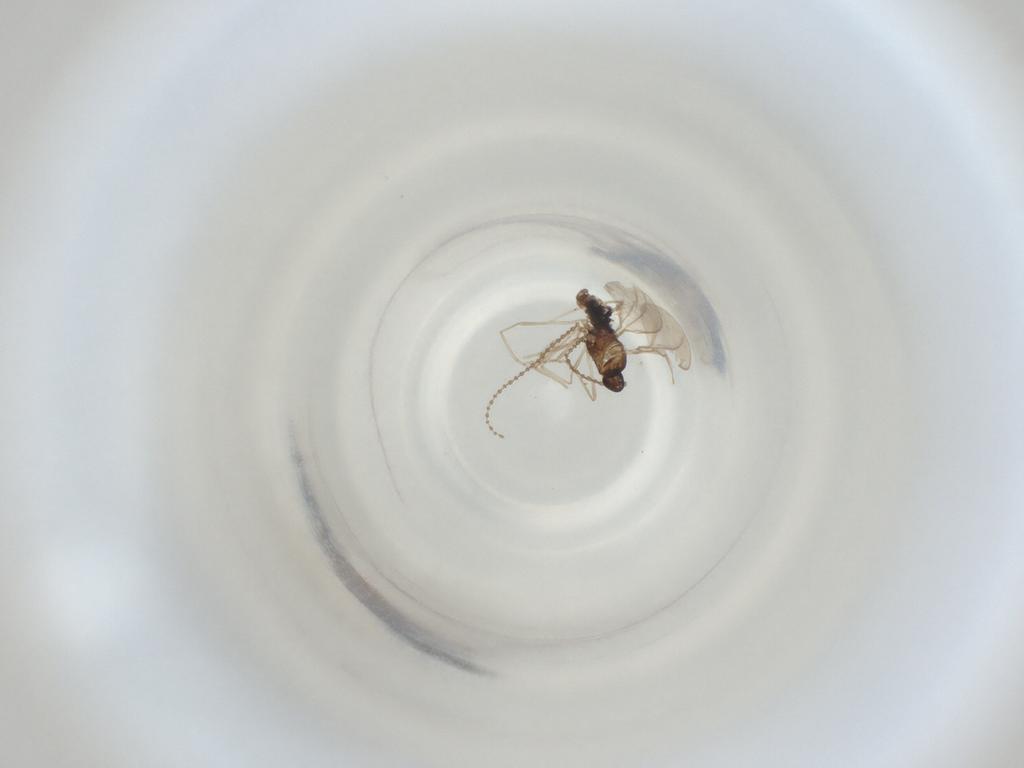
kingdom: Animalia
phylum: Arthropoda
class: Insecta
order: Diptera
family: Cecidomyiidae
